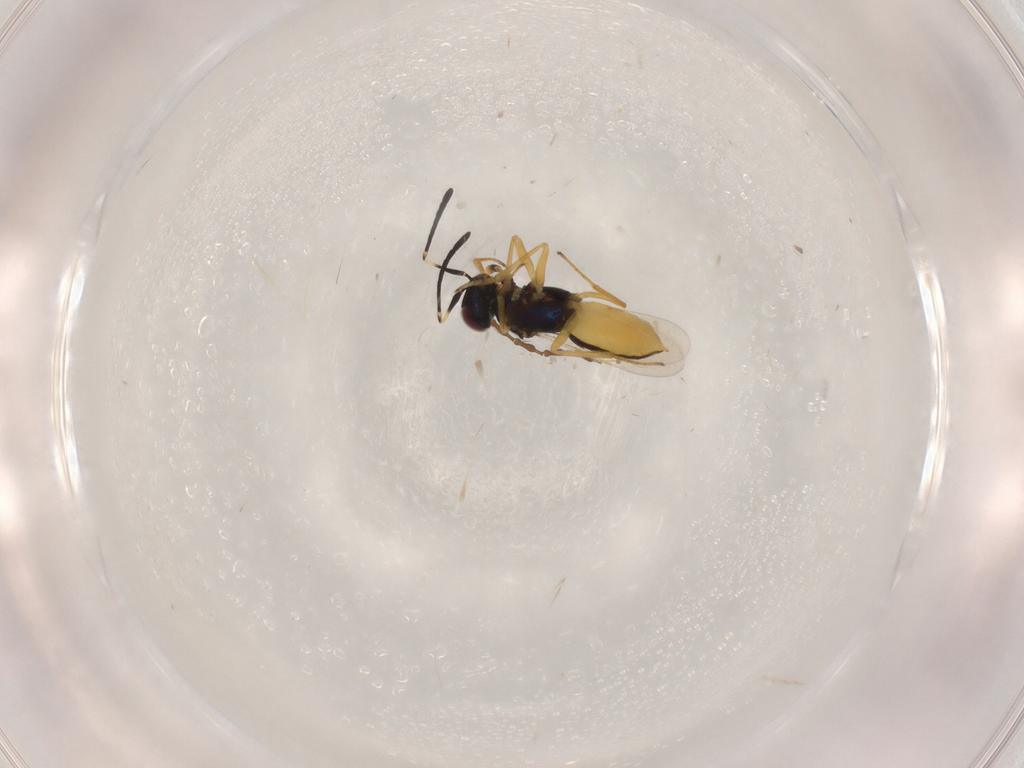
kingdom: Animalia
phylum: Arthropoda
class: Insecta
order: Hymenoptera
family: Encyrtidae
